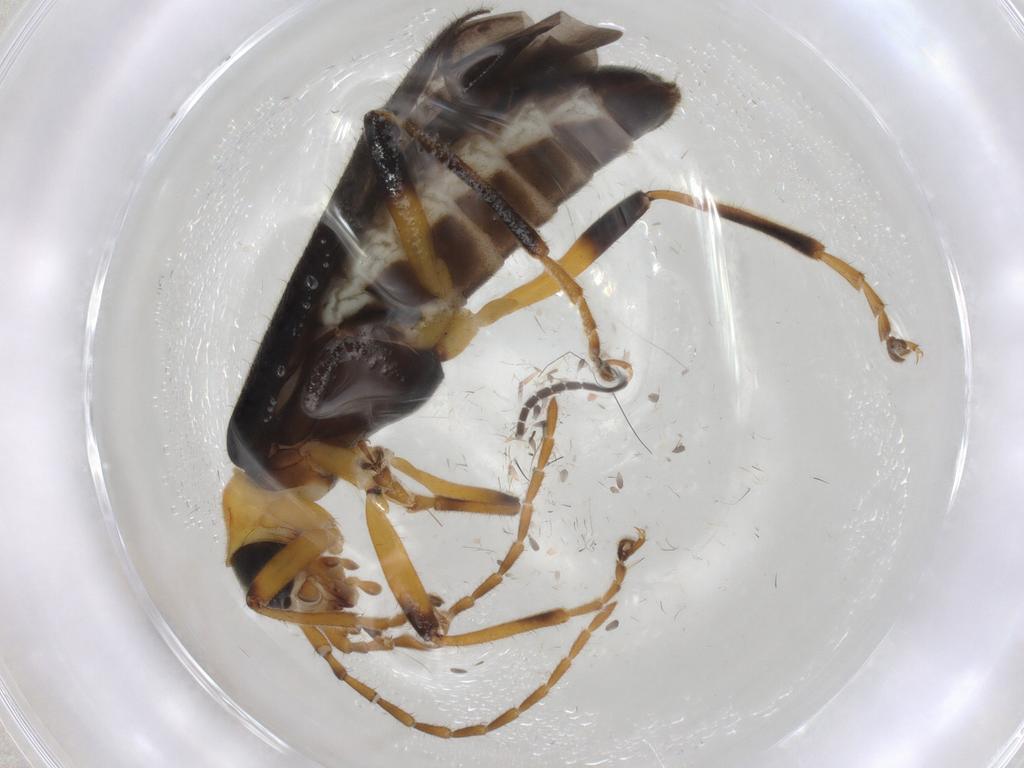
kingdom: Animalia
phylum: Arthropoda
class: Insecta
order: Coleoptera
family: Cantharidae
